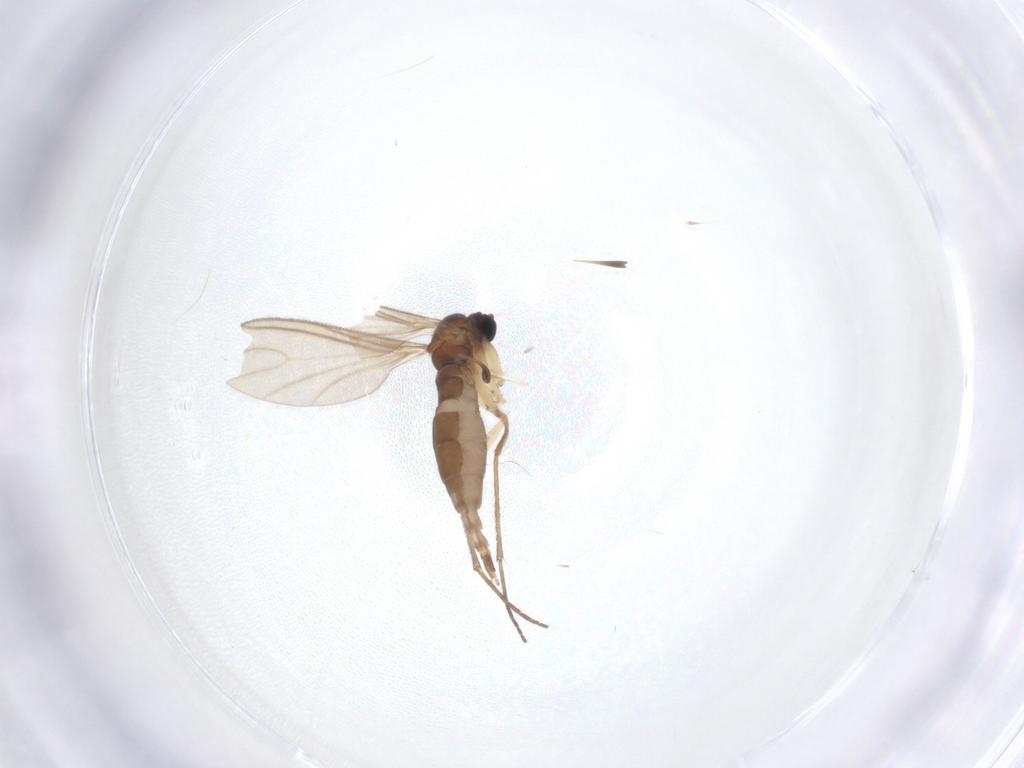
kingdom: Animalia
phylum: Arthropoda
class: Insecta
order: Diptera
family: Sciaridae
